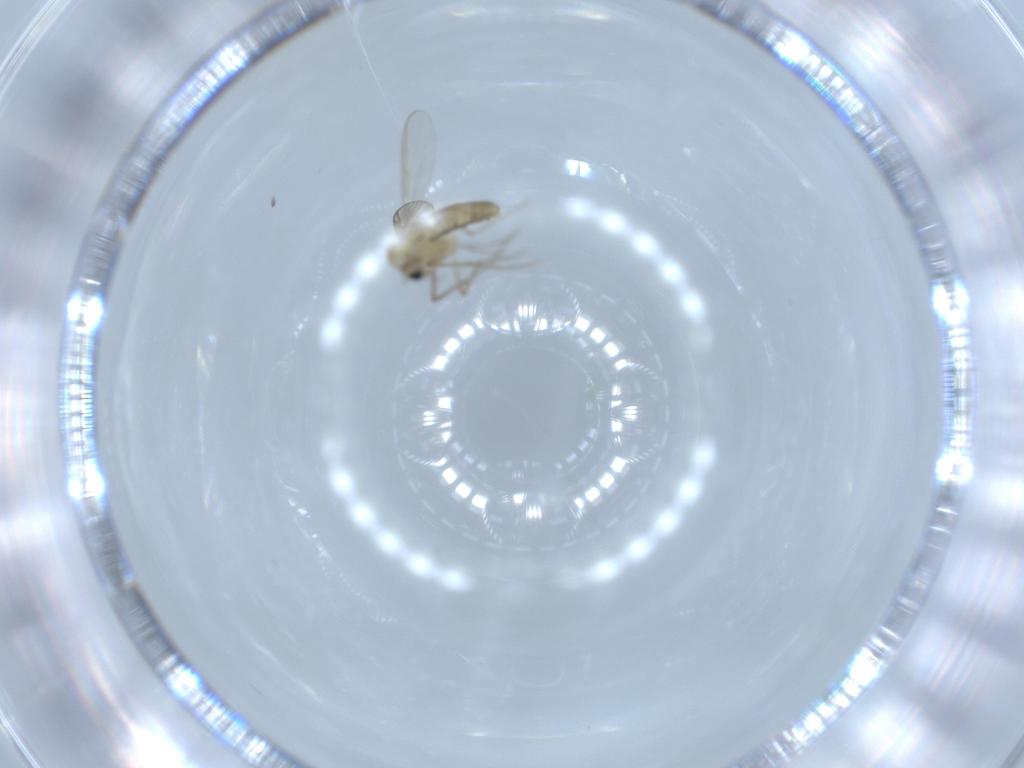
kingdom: Animalia
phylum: Arthropoda
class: Insecta
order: Diptera
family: Chironomidae
